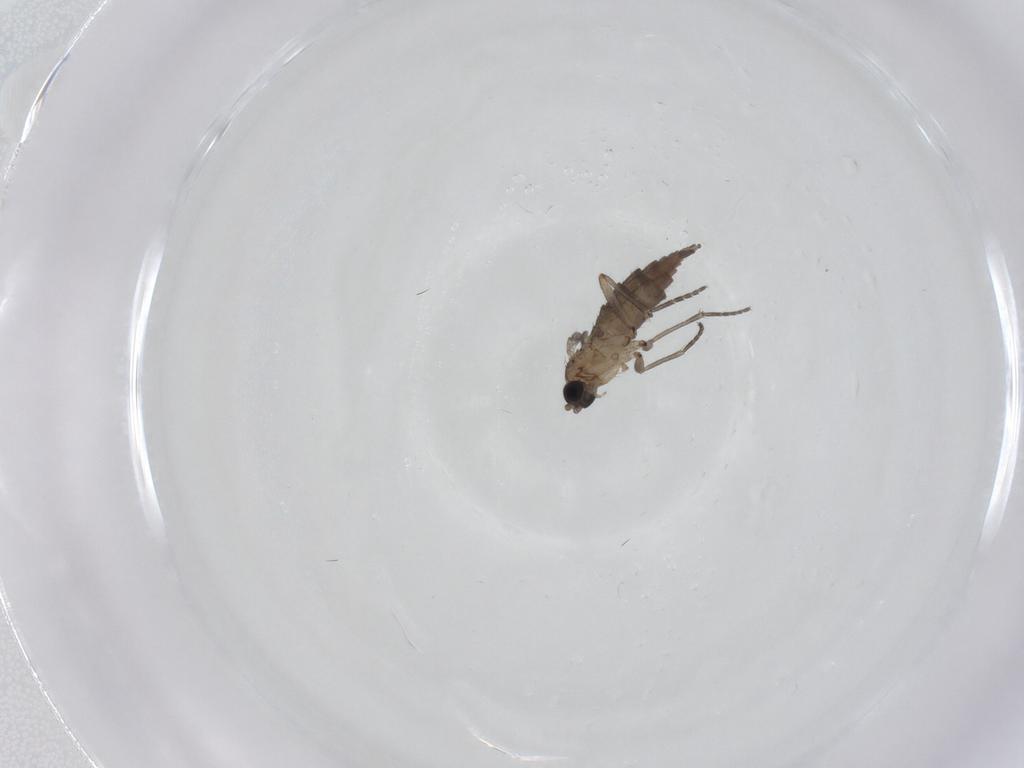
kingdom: Animalia
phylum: Arthropoda
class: Insecta
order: Diptera
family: Sciaridae
